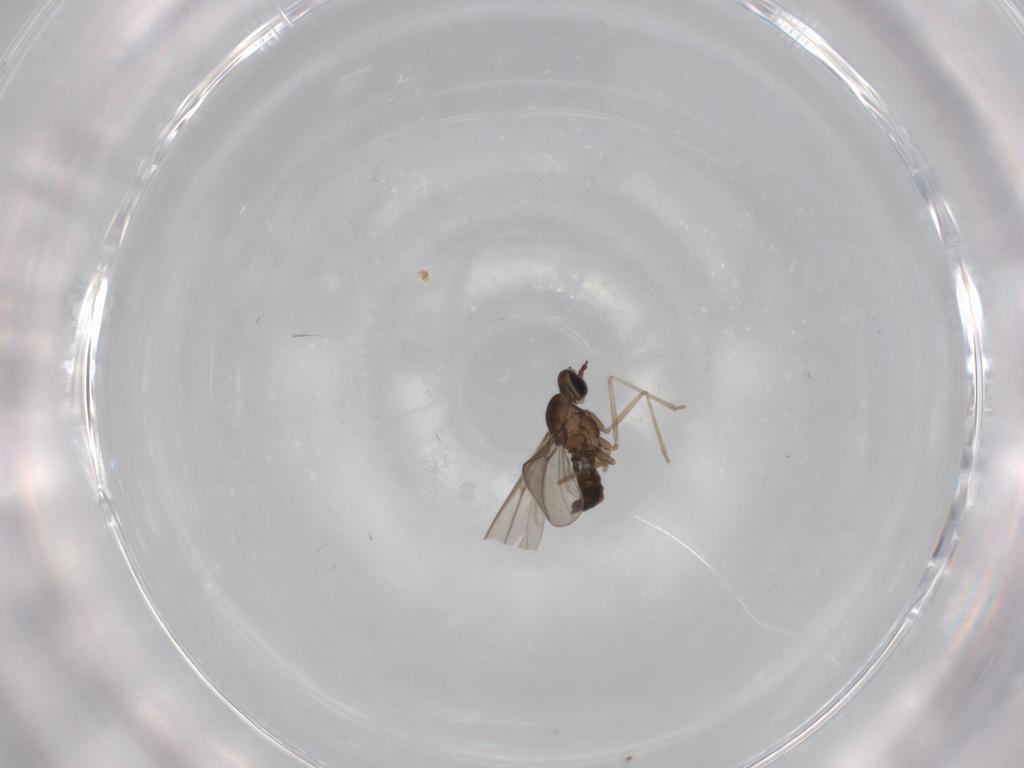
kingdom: Animalia
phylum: Arthropoda
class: Insecta
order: Diptera
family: Cecidomyiidae
